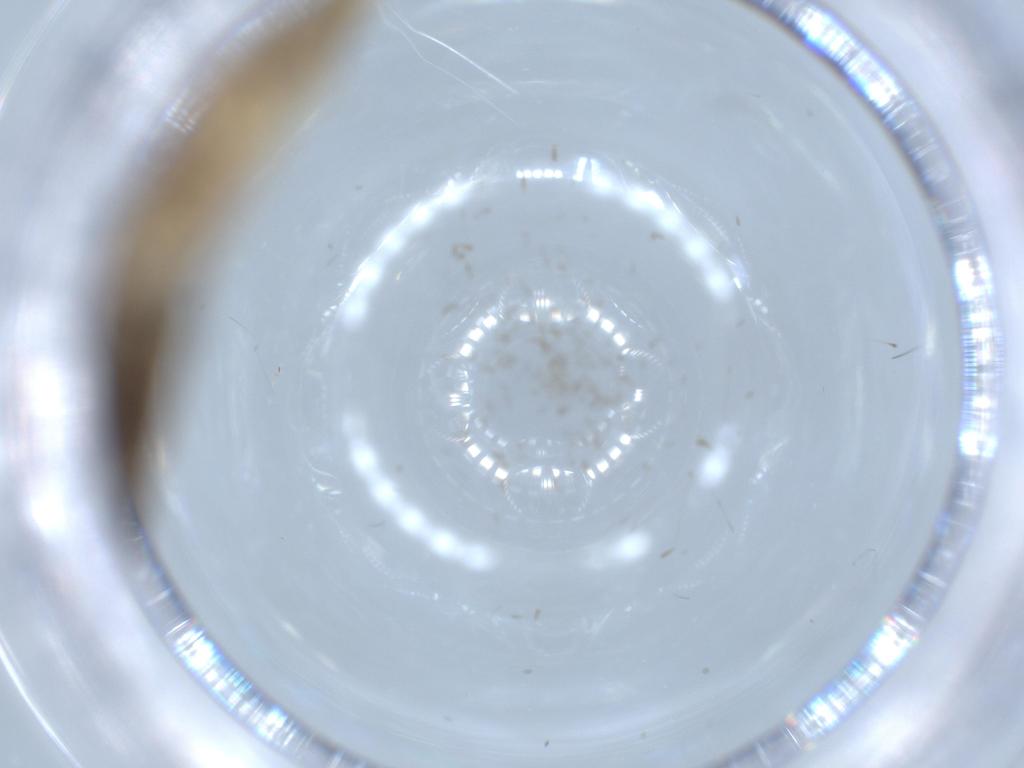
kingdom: Animalia
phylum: Arthropoda
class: Insecta
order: Lepidoptera
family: Tineidae
